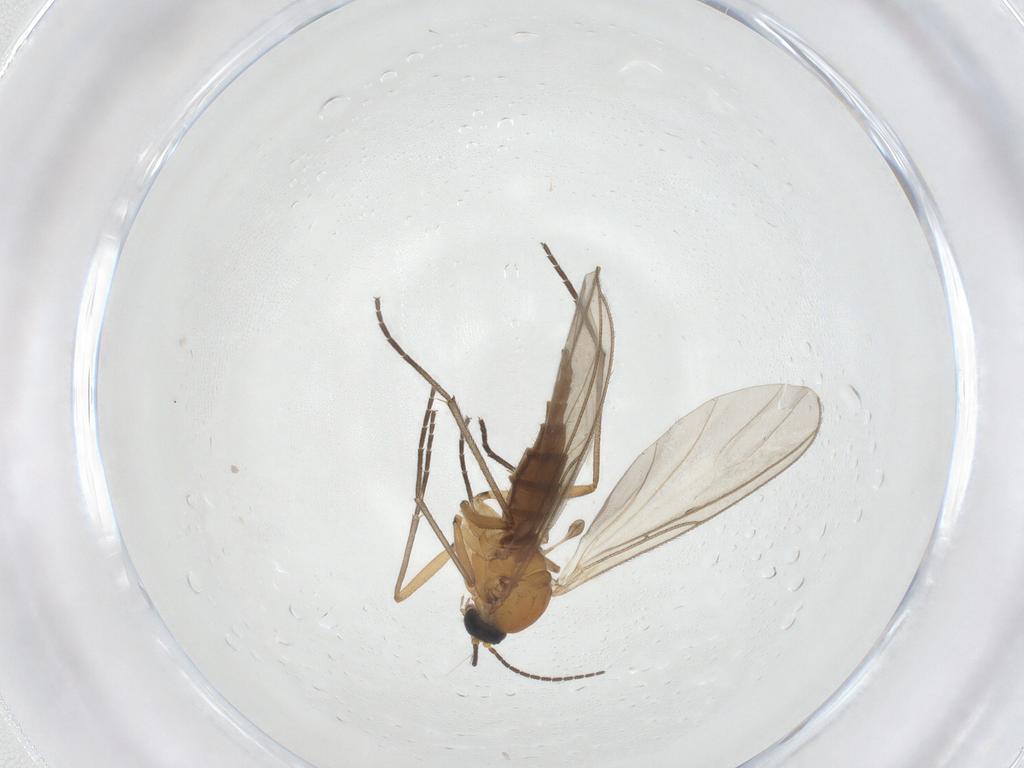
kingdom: Animalia
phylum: Arthropoda
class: Insecta
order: Diptera
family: Sciaridae
